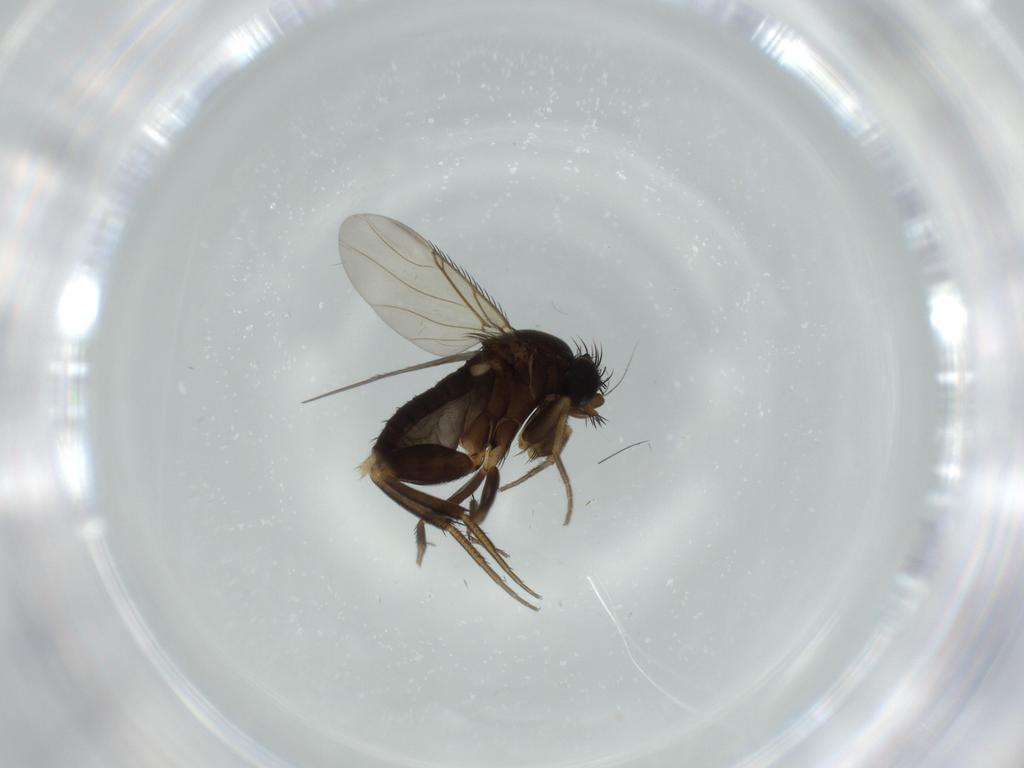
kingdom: Animalia
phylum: Arthropoda
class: Insecta
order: Diptera
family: Phoridae
